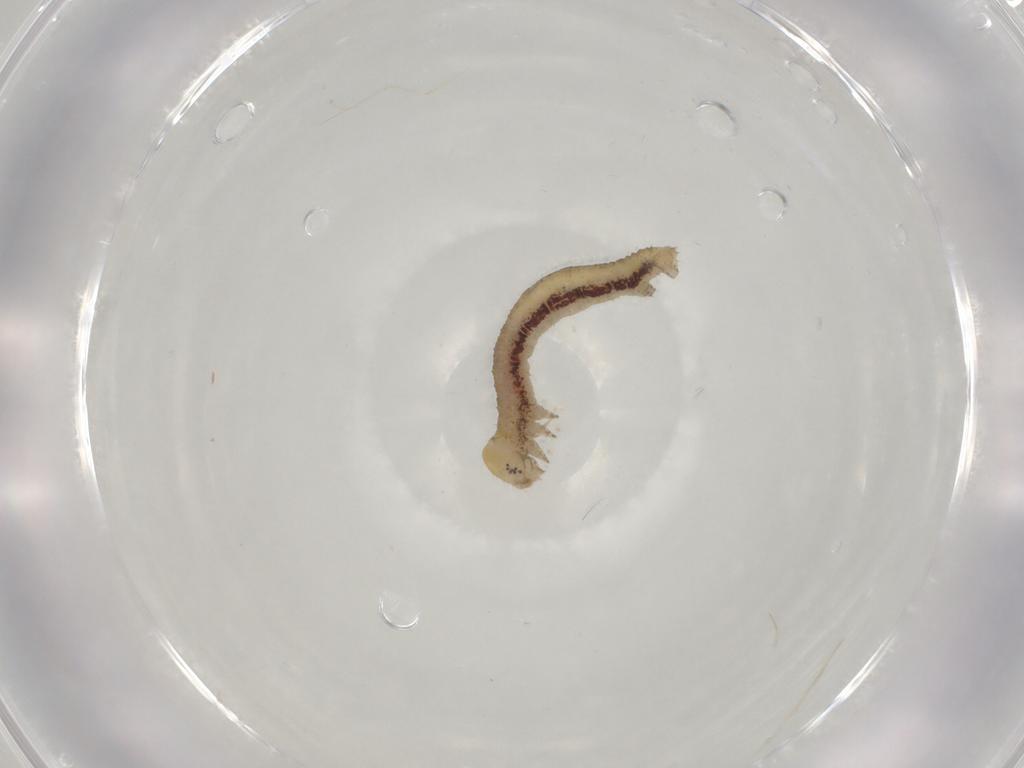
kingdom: Animalia
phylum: Arthropoda
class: Insecta
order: Lepidoptera
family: Geometridae
